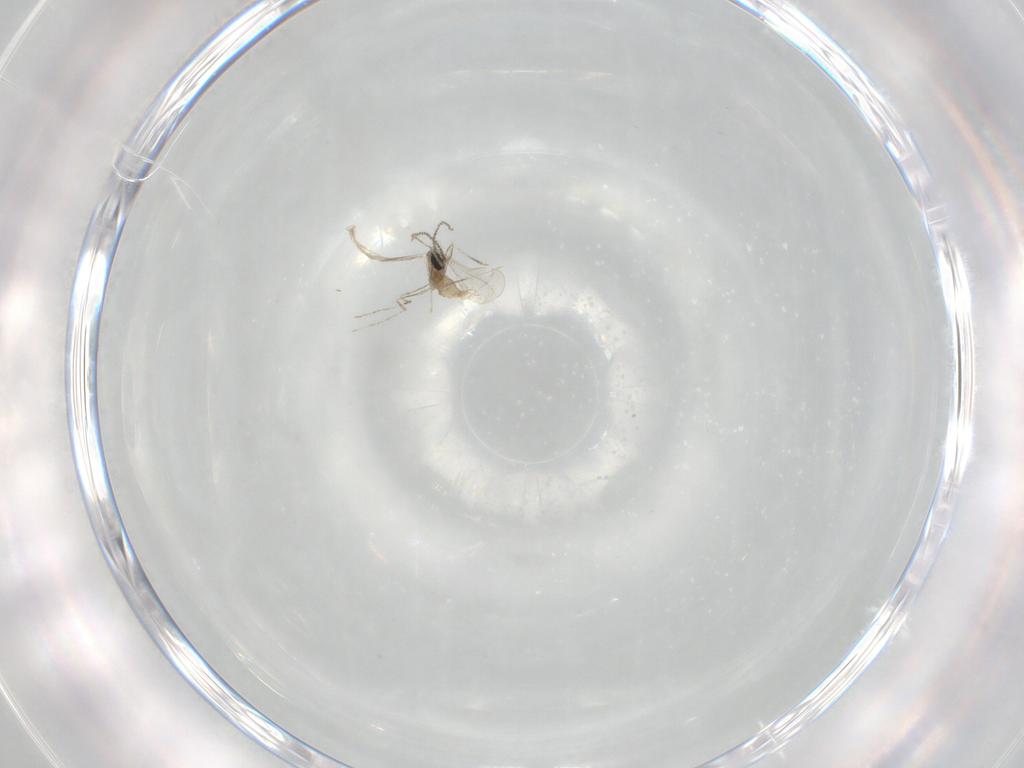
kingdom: Animalia
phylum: Arthropoda
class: Insecta
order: Diptera
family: Cecidomyiidae
